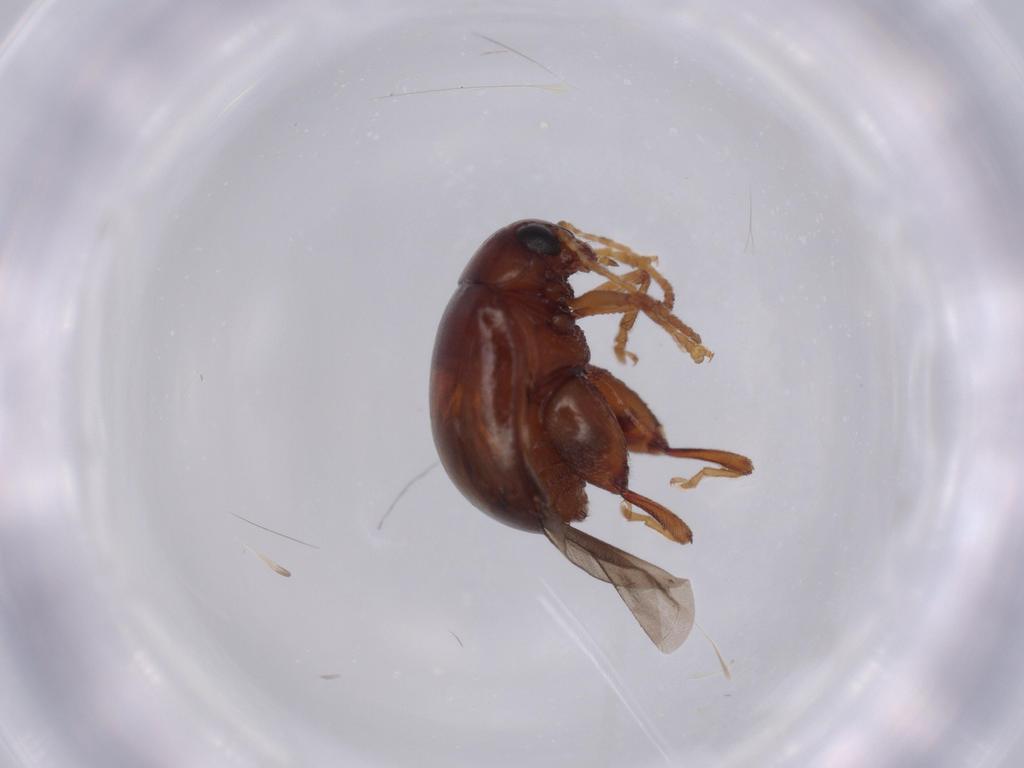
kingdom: Animalia
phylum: Arthropoda
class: Insecta
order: Coleoptera
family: Scarabaeidae
